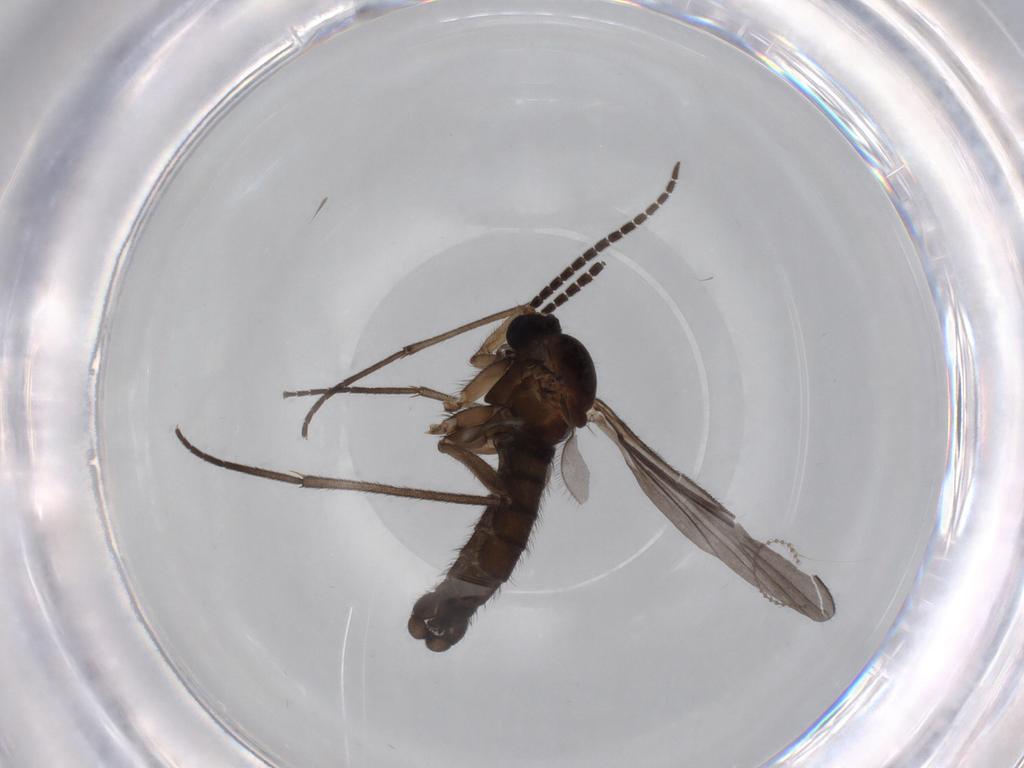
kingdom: Animalia
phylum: Arthropoda
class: Insecta
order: Diptera
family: Sciaridae
